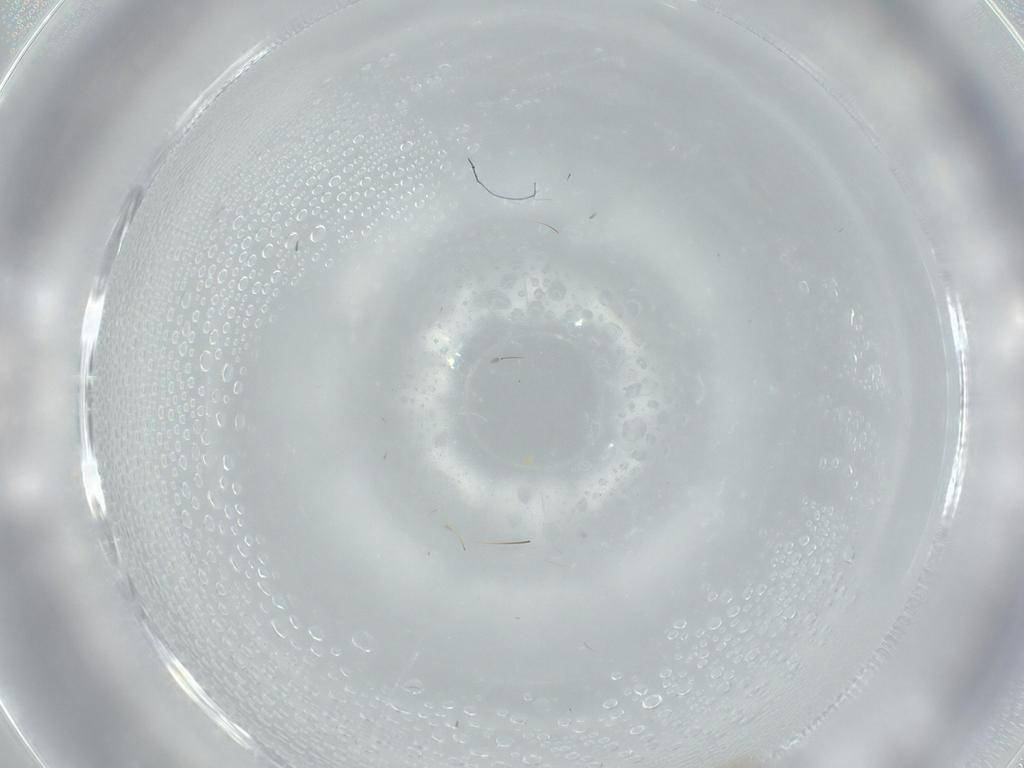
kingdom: Animalia
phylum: Arthropoda
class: Insecta
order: Blattodea
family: Blaberidae
